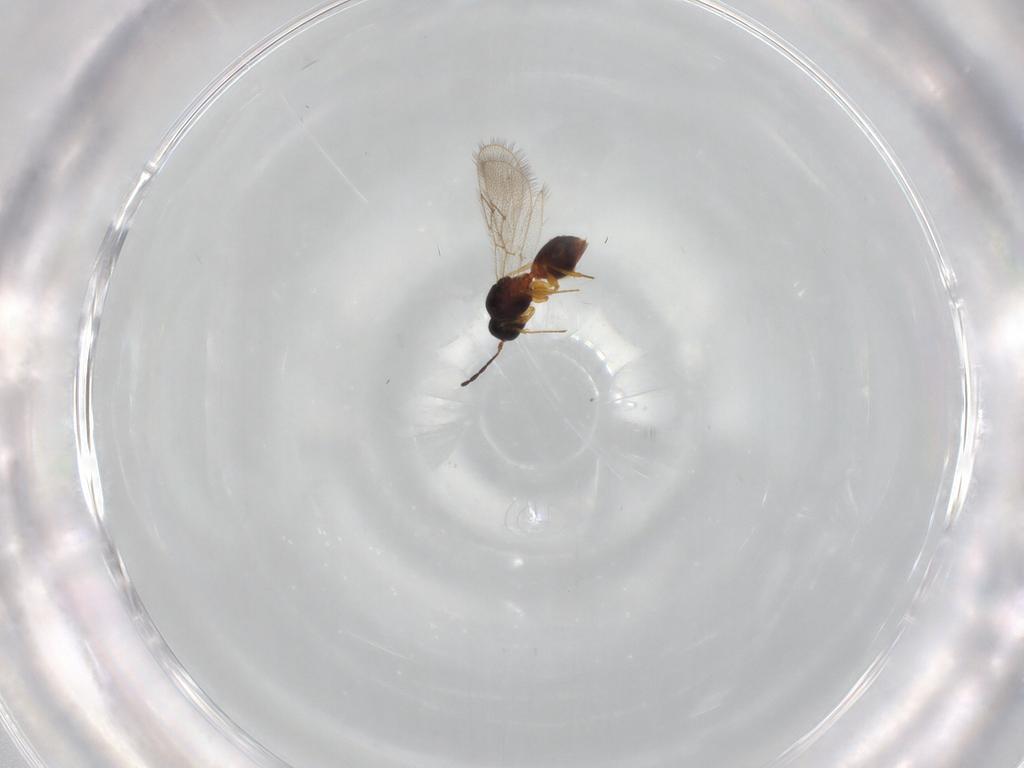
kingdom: Animalia
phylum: Arthropoda
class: Insecta
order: Hymenoptera
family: Figitidae
